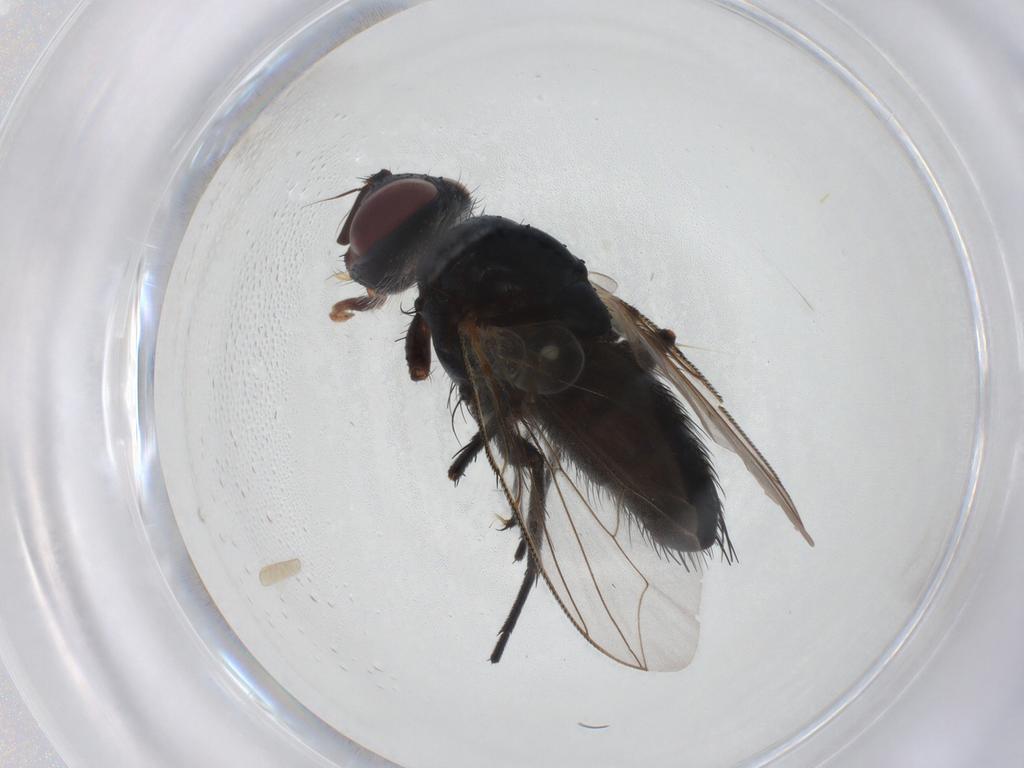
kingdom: Animalia
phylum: Arthropoda
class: Insecta
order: Diptera
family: Tachinidae
